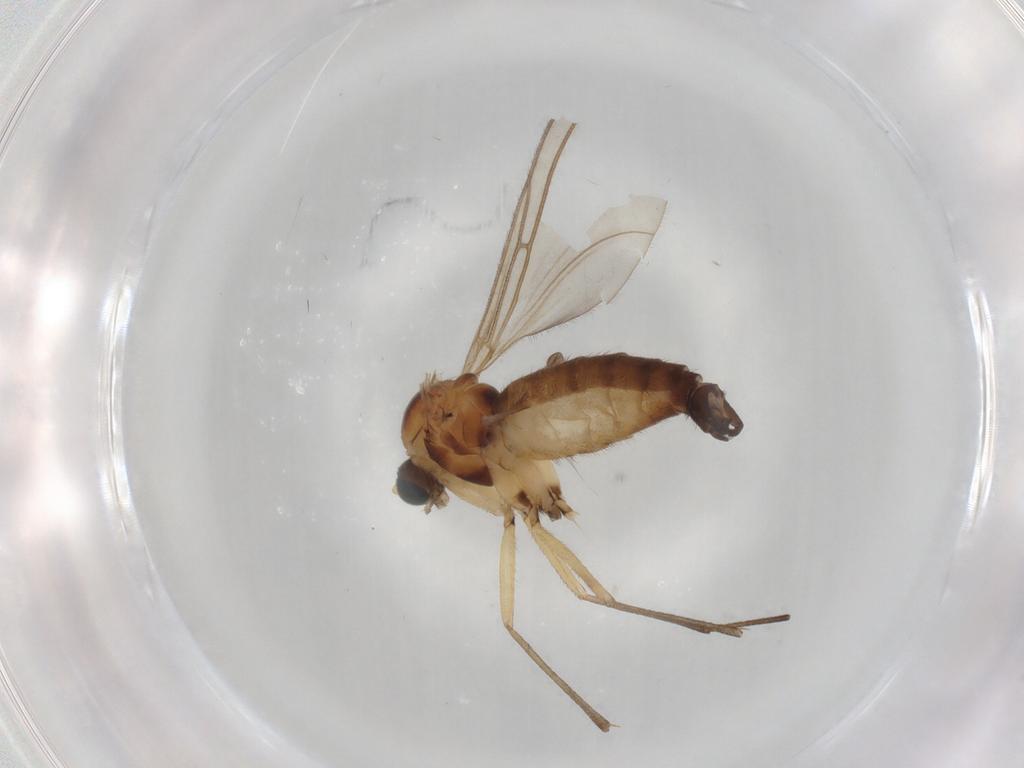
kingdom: Animalia
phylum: Arthropoda
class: Insecta
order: Diptera
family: Sciaridae
